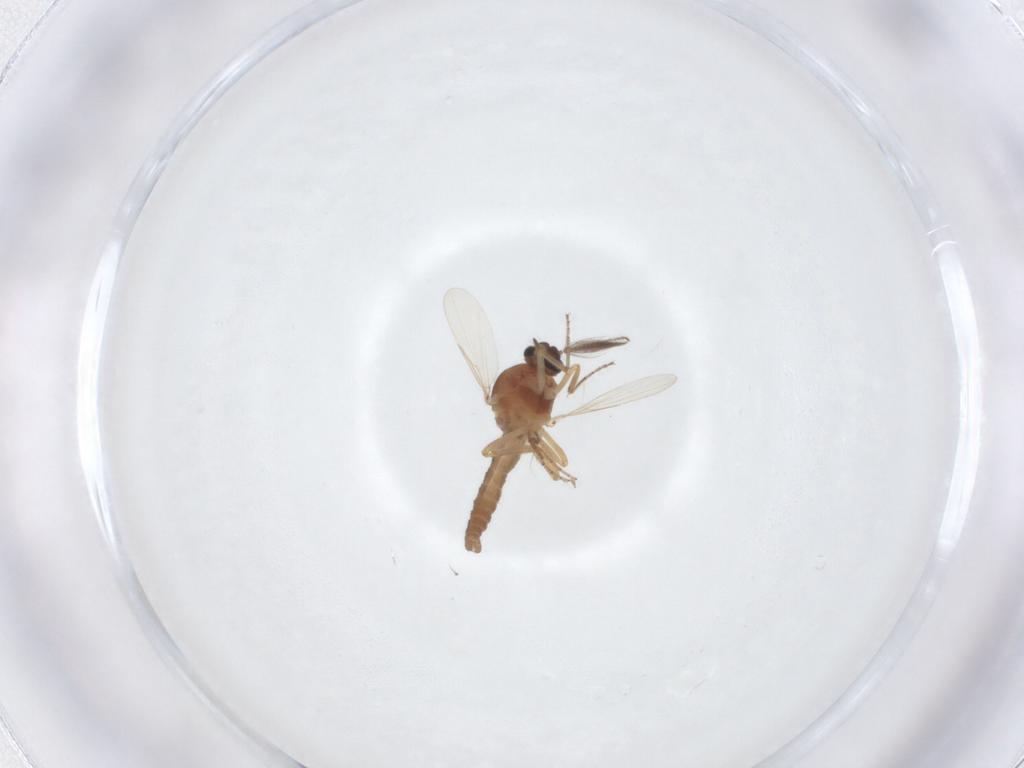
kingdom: Animalia
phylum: Arthropoda
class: Insecta
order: Diptera
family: Ceratopogonidae
